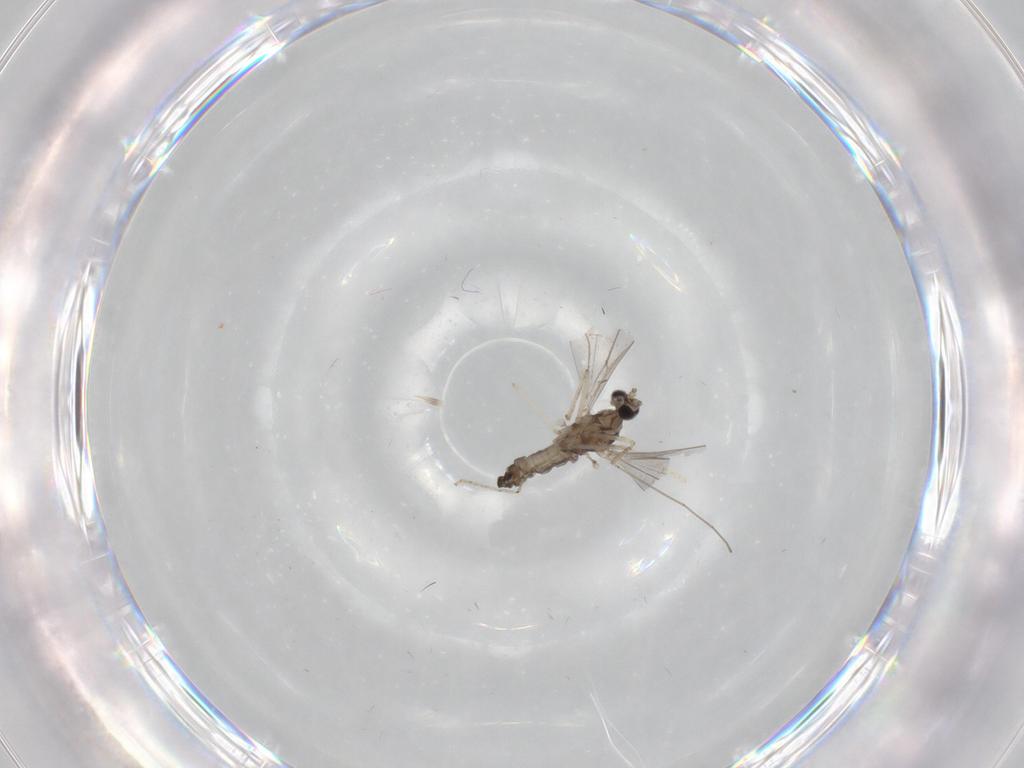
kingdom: Animalia
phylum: Arthropoda
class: Insecta
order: Diptera
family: Cecidomyiidae
